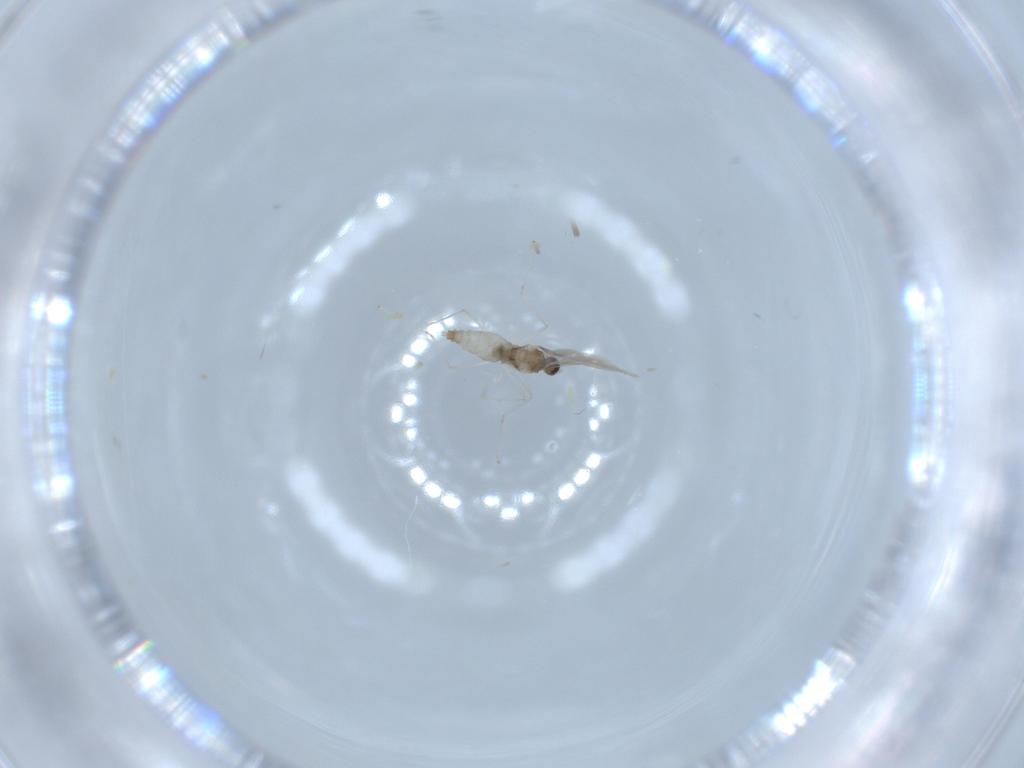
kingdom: Animalia
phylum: Arthropoda
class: Insecta
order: Diptera
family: Cecidomyiidae
